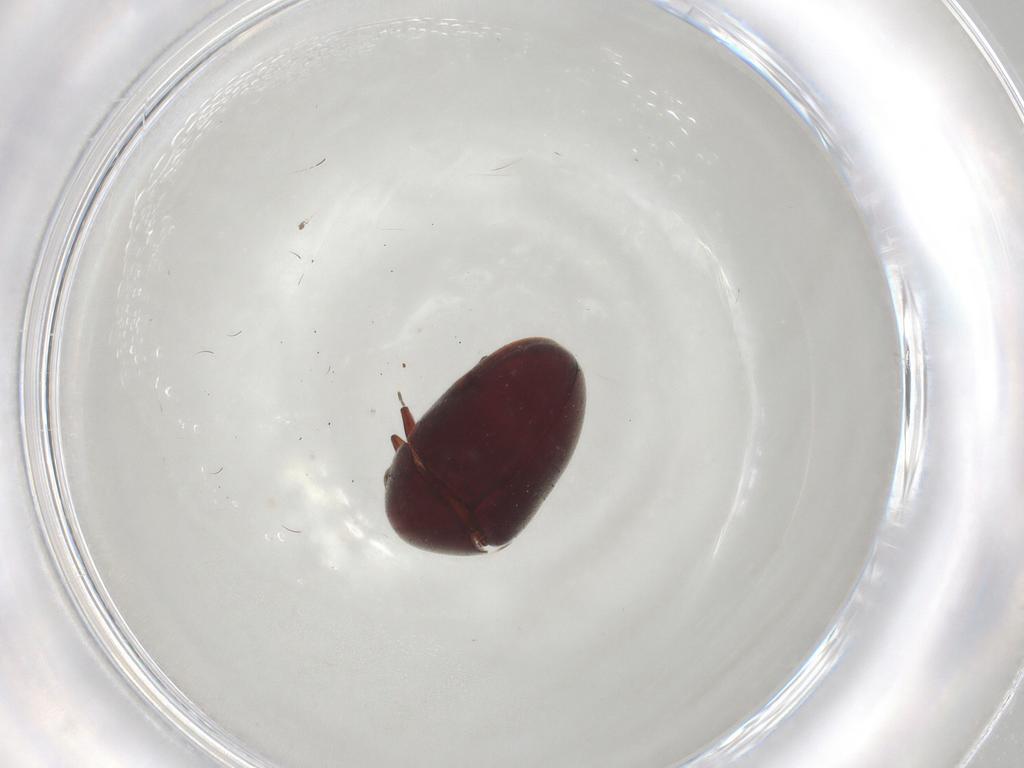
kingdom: Animalia
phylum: Arthropoda
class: Insecta
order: Coleoptera
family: Ptinidae
